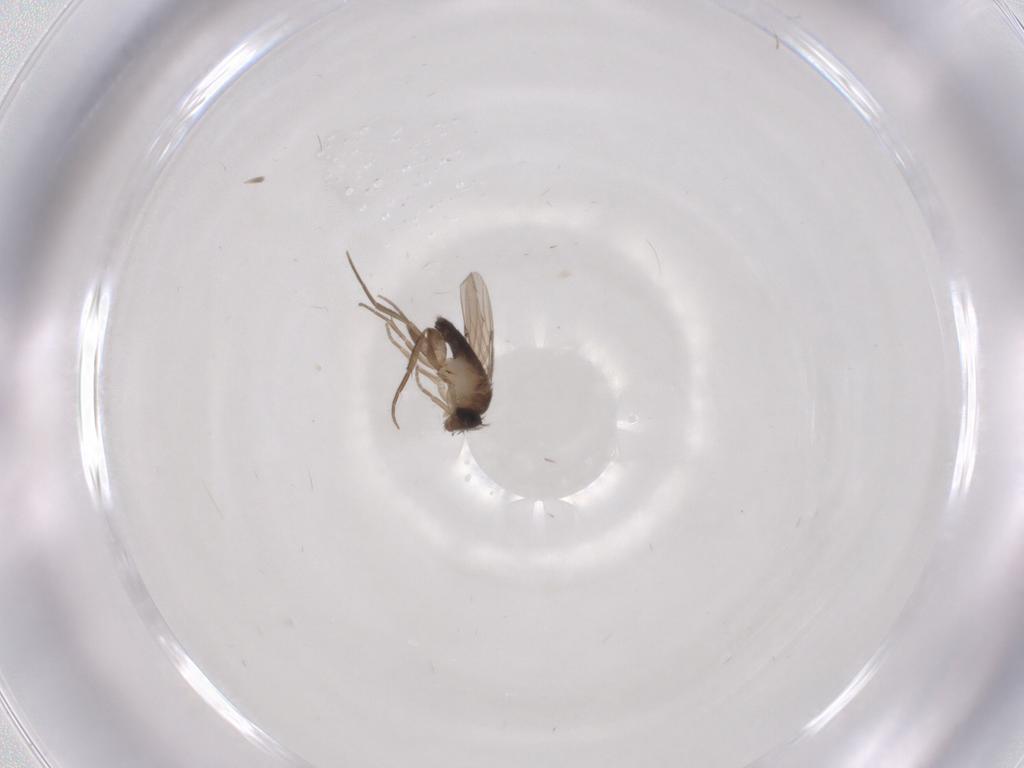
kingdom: Animalia
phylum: Arthropoda
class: Insecta
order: Diptera
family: Phoridae
